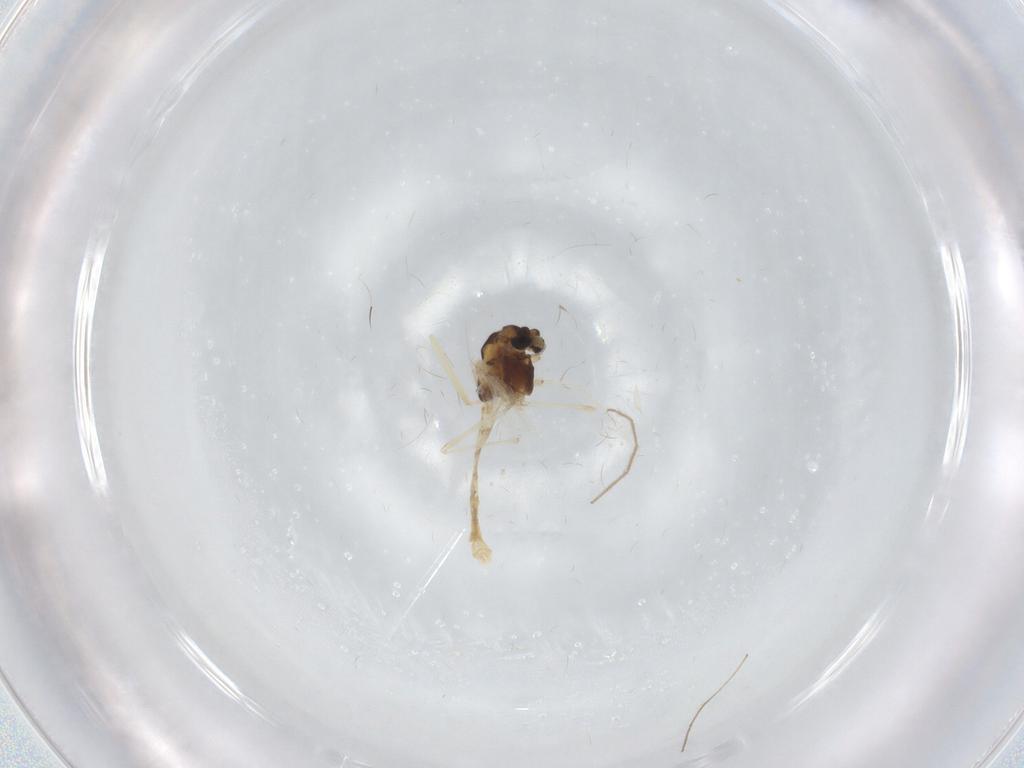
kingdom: Animalia
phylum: Arthropoda
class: Insecta
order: Diptera
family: Chironomidae
